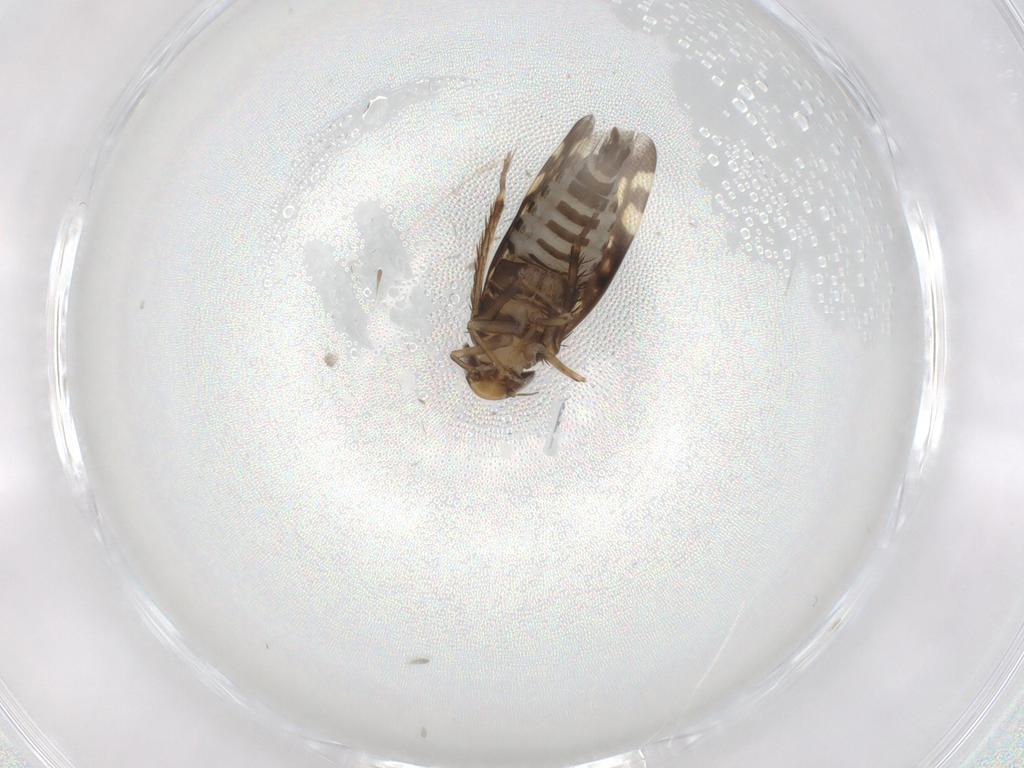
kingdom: Animalia
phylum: Arthropoda
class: Insecta
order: Hemiptera
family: Cicadellidae
